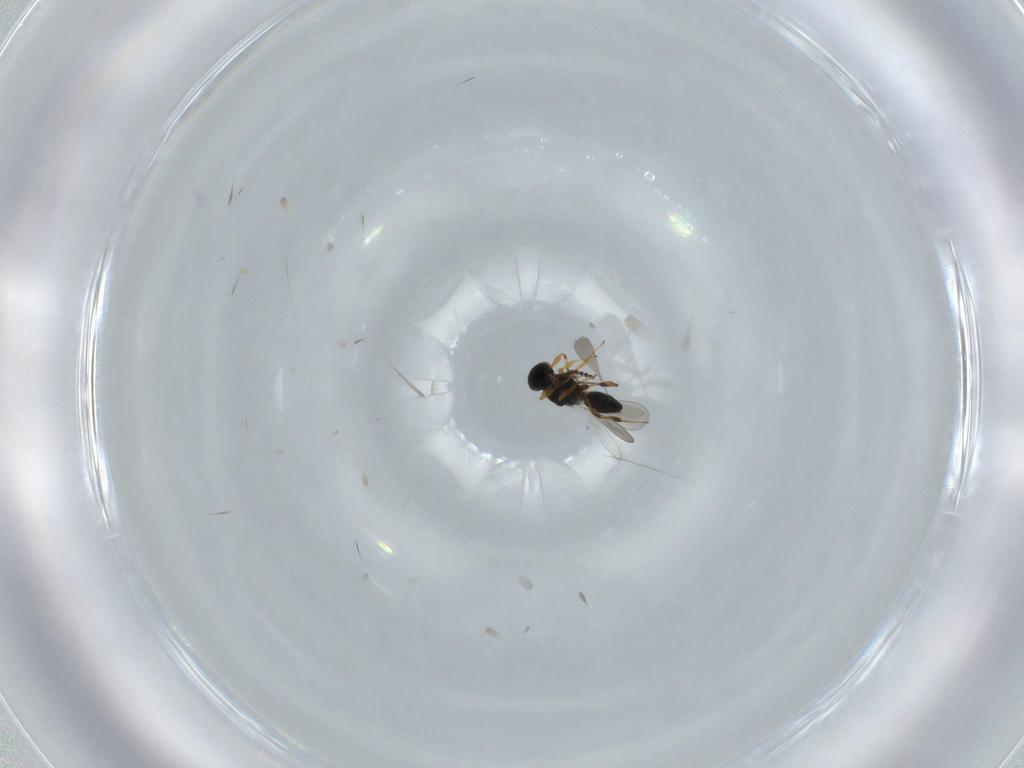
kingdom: Animalia
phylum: Arthropoda
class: Insecta
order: Hymenoptera
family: Platygastridae
